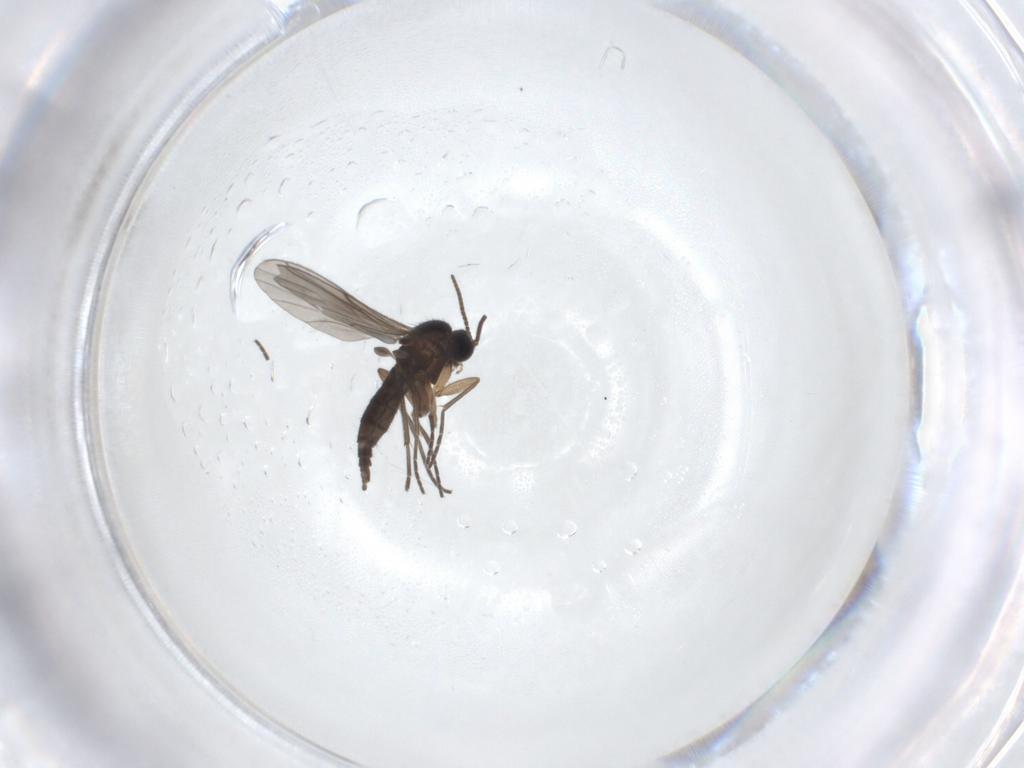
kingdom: Animalia
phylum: Arthropoda
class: Insecta
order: Diptera
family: Sciaridae
